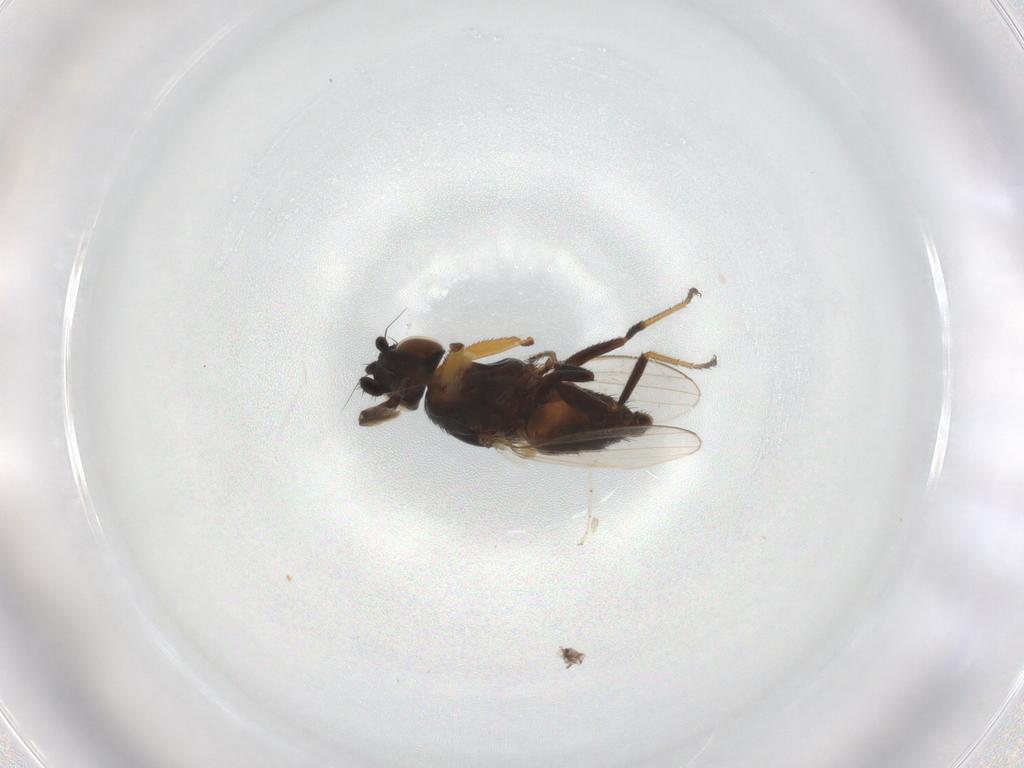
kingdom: Animalia
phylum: Arthropoda
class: Insecta
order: Diptera
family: Milichiidae
